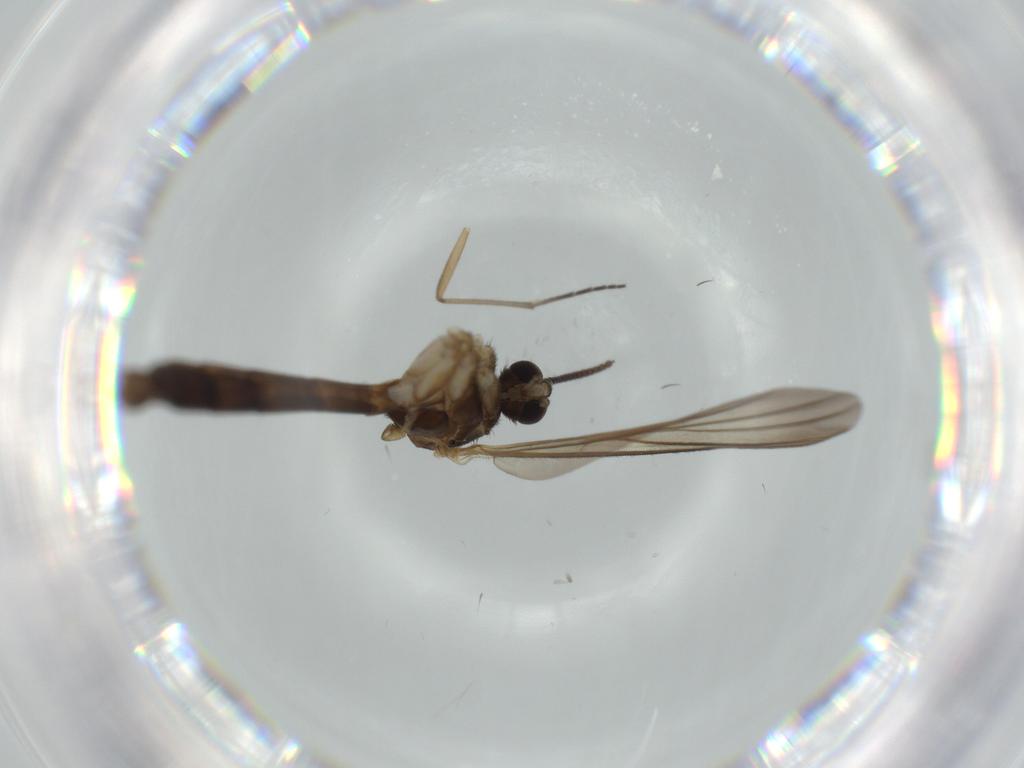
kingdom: Animalia
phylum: Arthropoda
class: Insecta
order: Diptera
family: Keroplatidae
